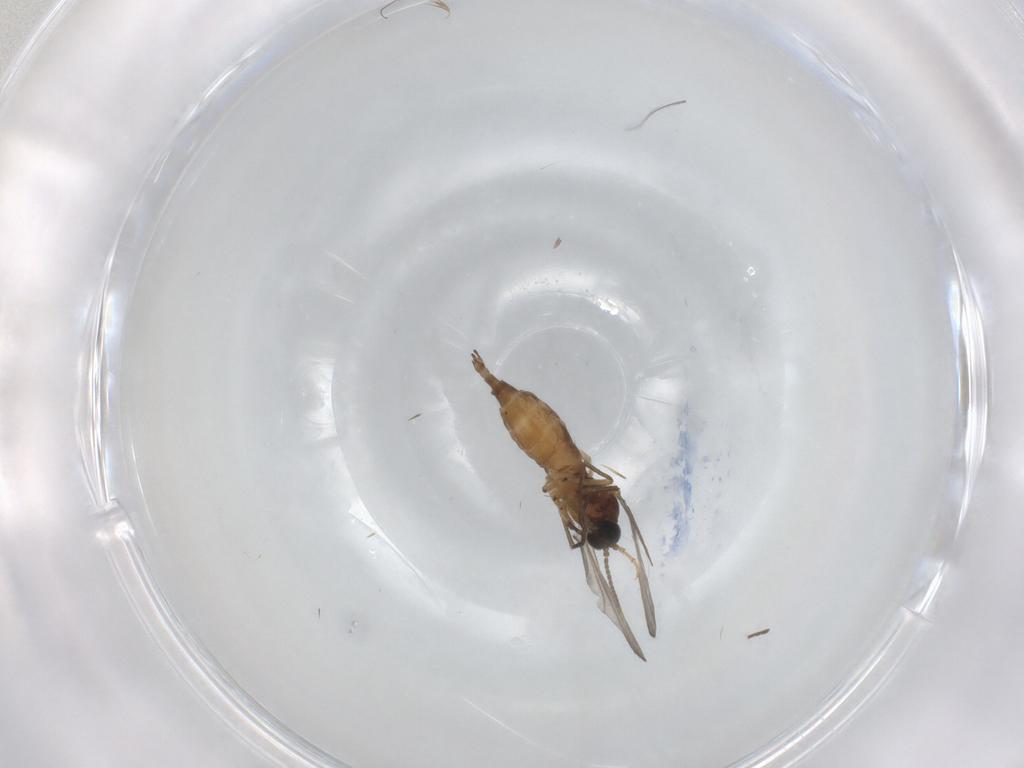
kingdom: Animalia
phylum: Arthropoda
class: Insecta
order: Diptera
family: Sciaridae
